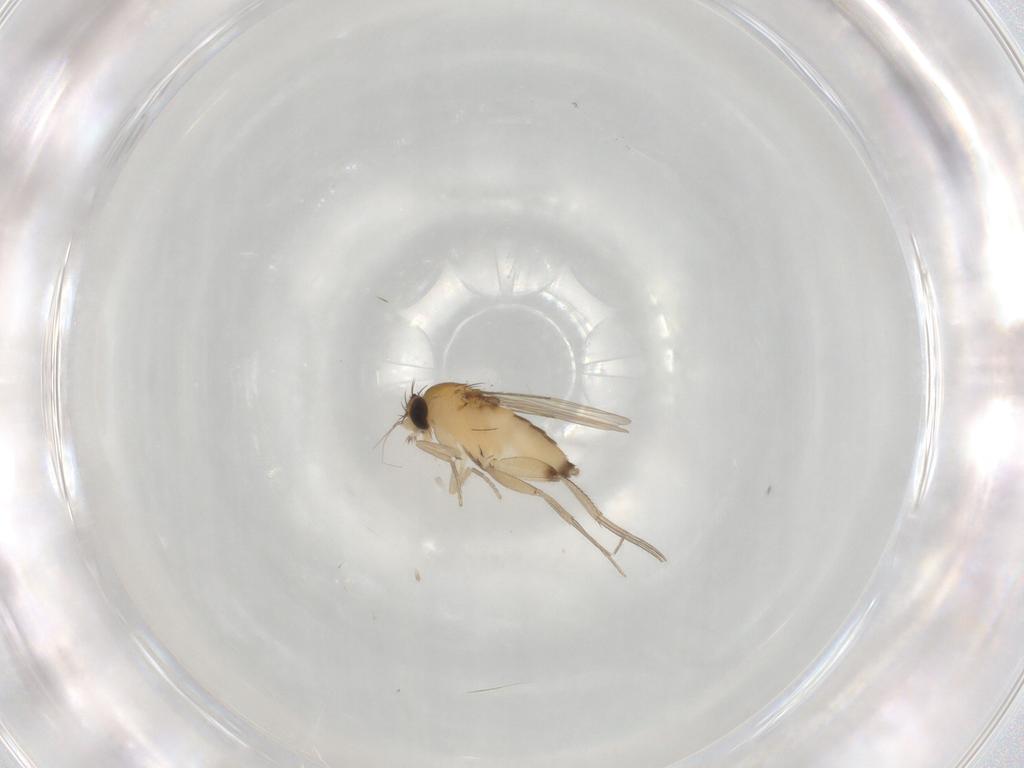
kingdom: Animalia
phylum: Arthropoda
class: Insecta
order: Diptera
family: Phoridae
